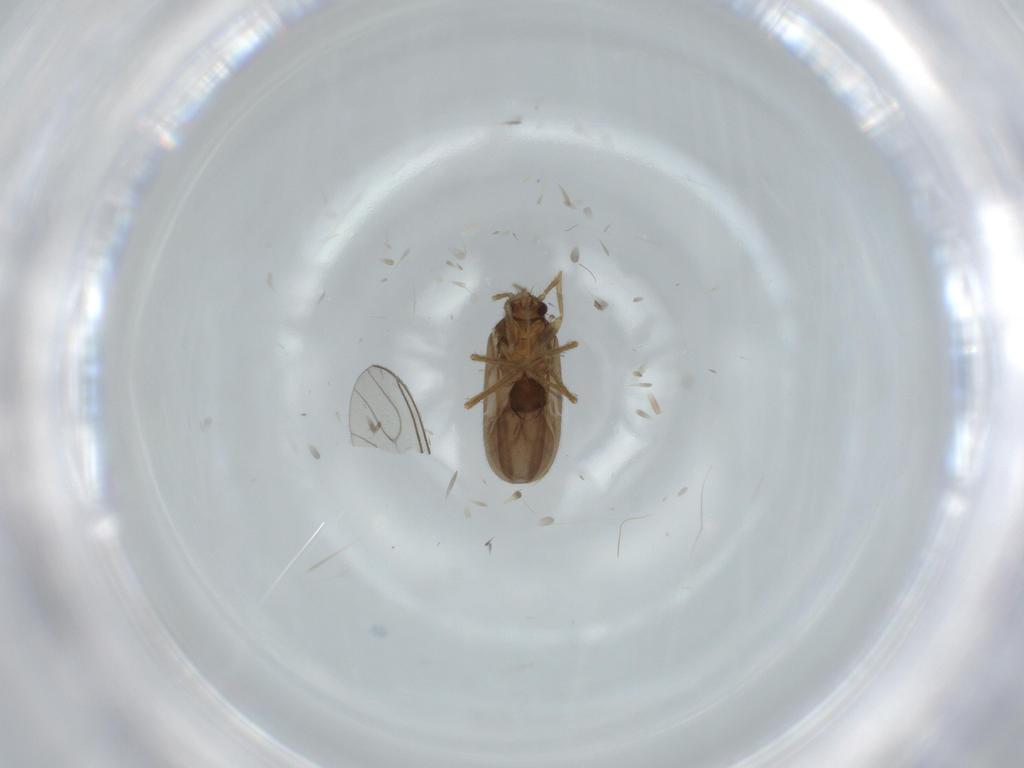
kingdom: Animalia
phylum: Arthropoda
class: Insecta
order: Hemiptera
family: Ceratocombidae
